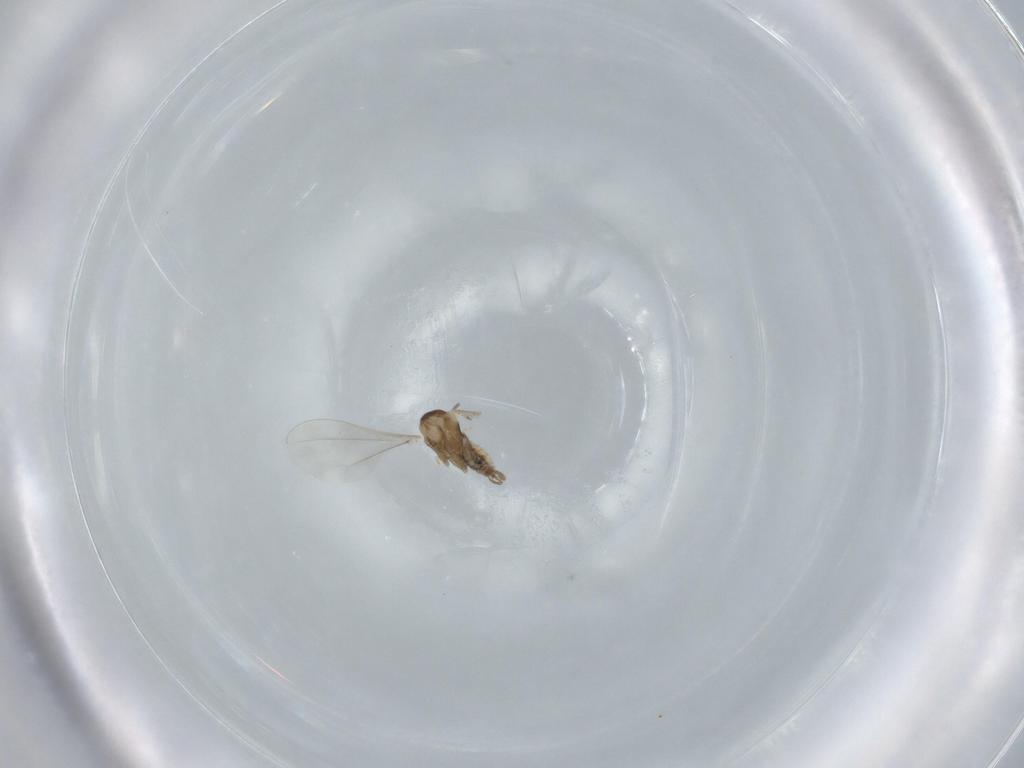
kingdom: Animalia
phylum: Arthropoda
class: Insecta
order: Diptera
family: Cecidomyiidae
